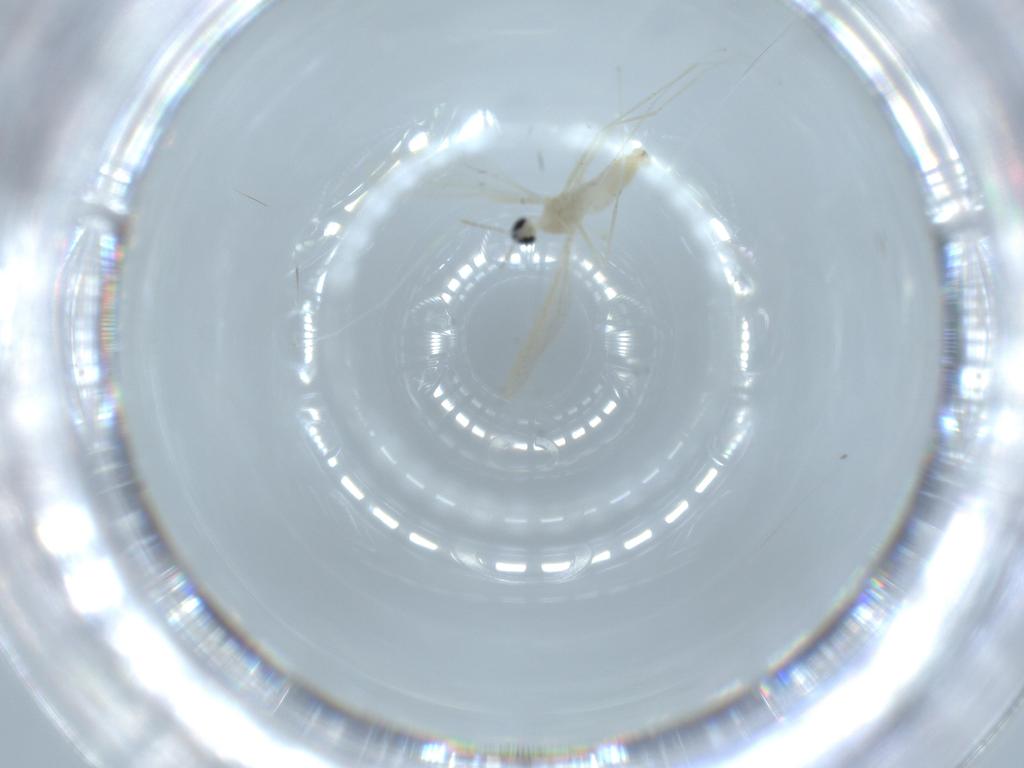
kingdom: Animalia
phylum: Arthropoda
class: Insecta
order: Diptera
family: Cecidomyiidae
